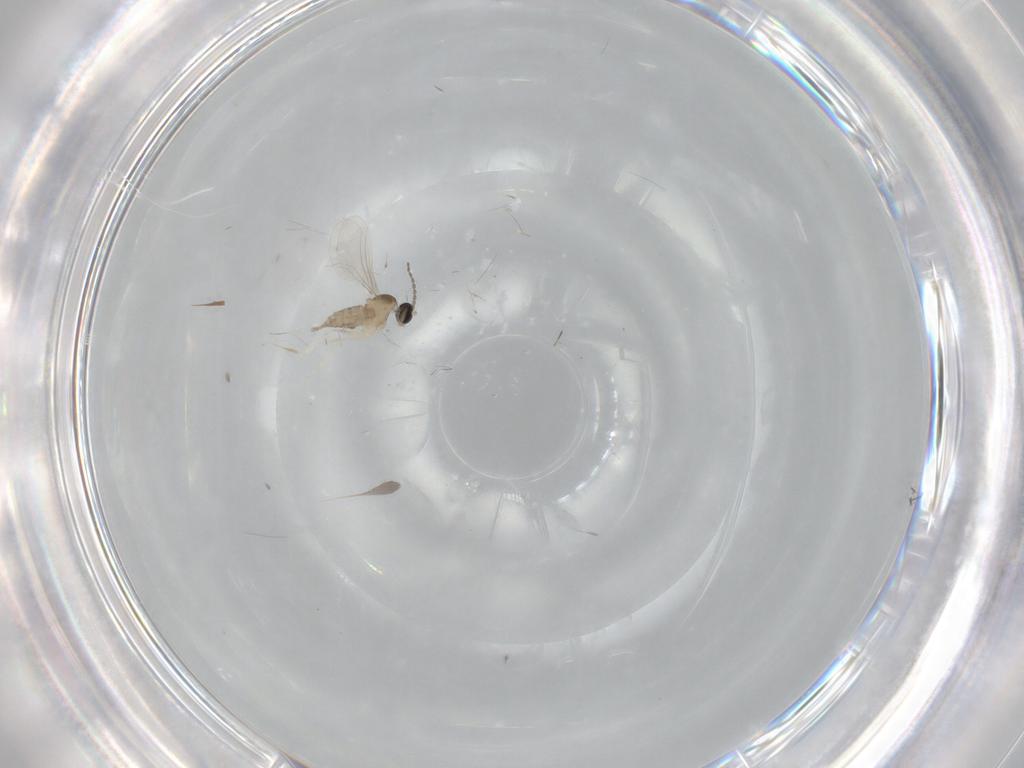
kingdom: Animalia
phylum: Arthropoda
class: Insecta
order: Diptera
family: Cecidomyiidae
